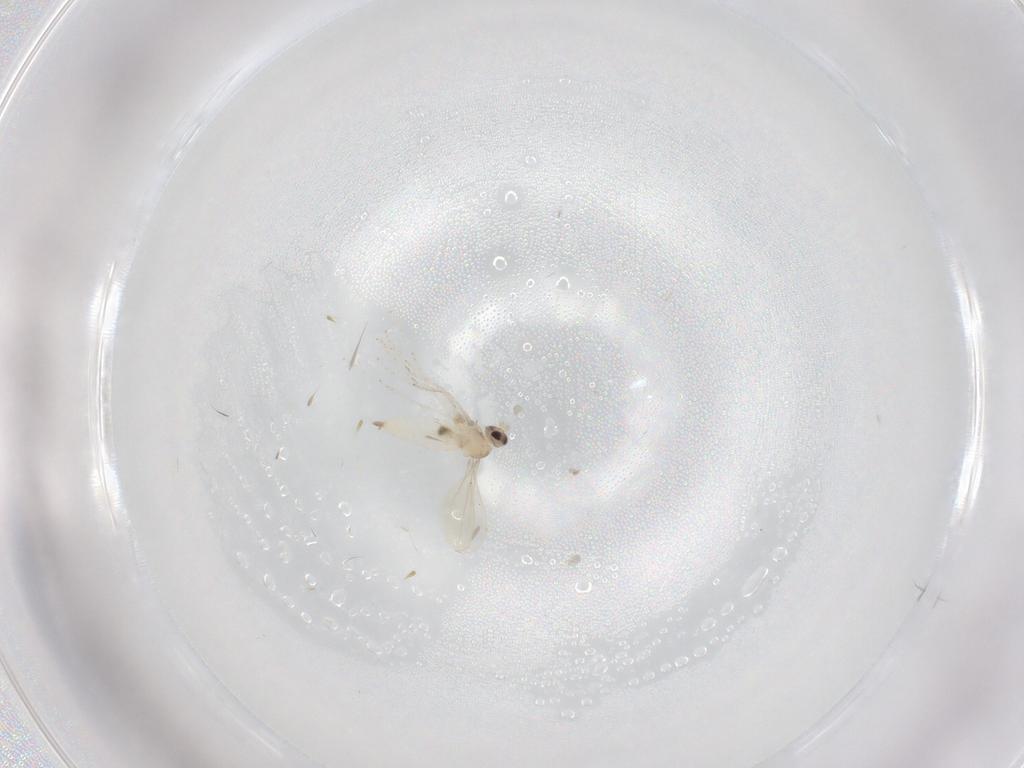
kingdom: Animalia
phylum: Arthropoda
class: Insecta
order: Diptera
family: Cecidomyiidae
